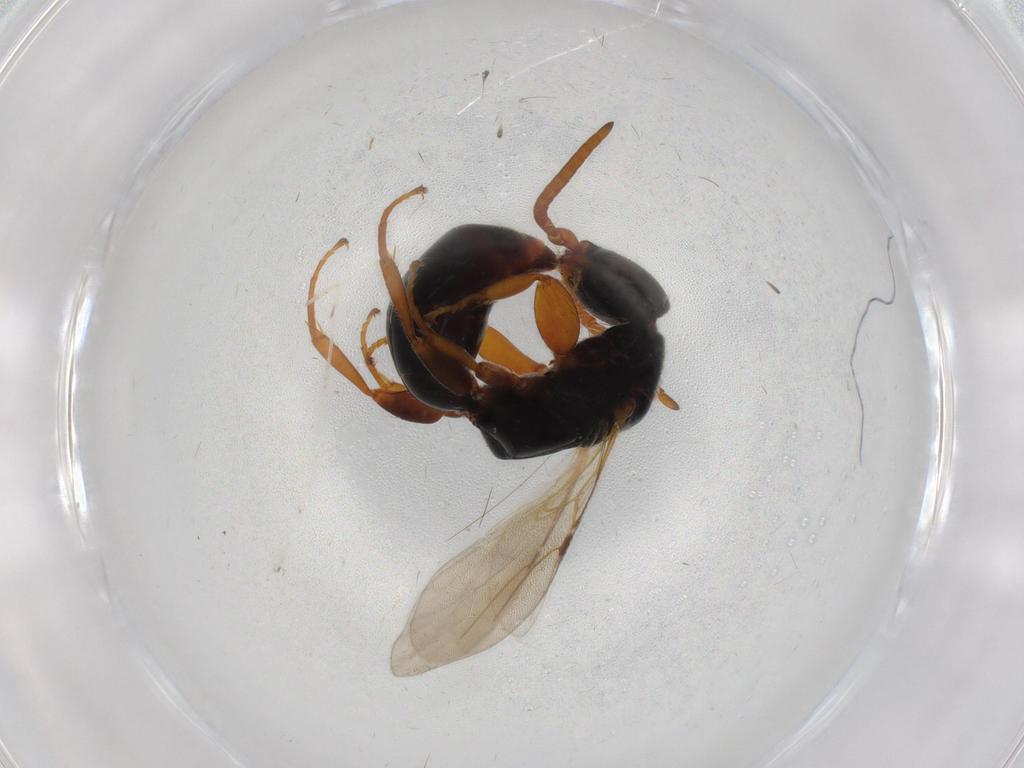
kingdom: Animalia
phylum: Arthropoda
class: Insecta
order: Hymenoptera
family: Bethylidae
